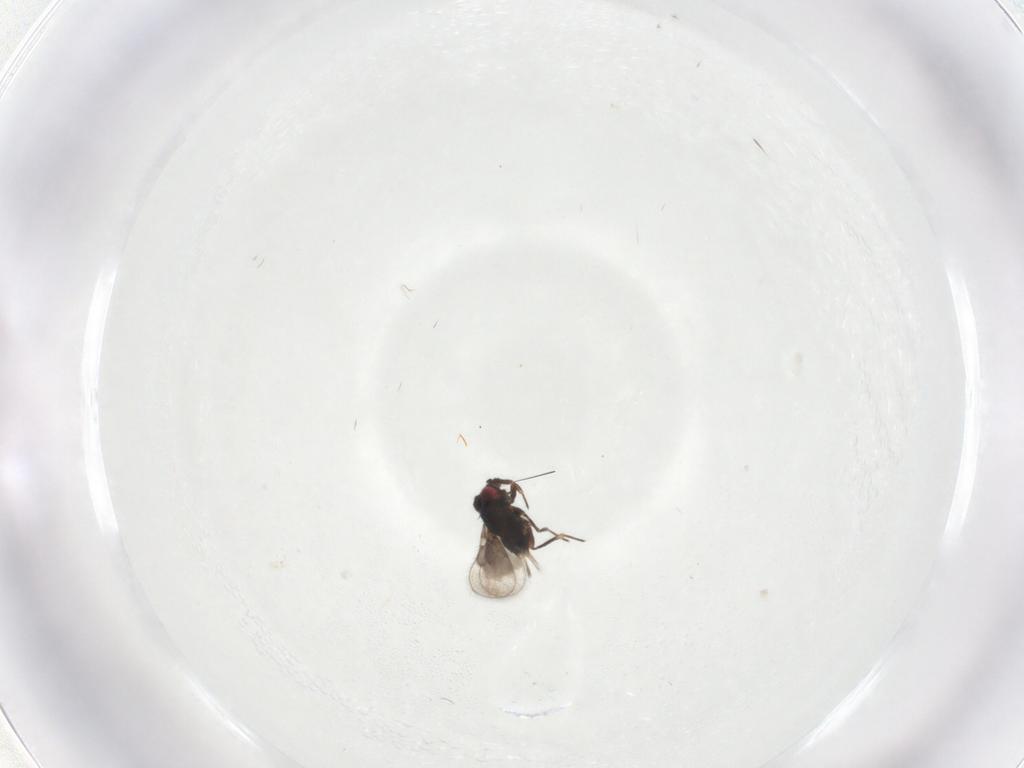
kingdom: Animalia
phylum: Arthropoda
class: Insecta
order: Hymenoptera
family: Eulophidae
